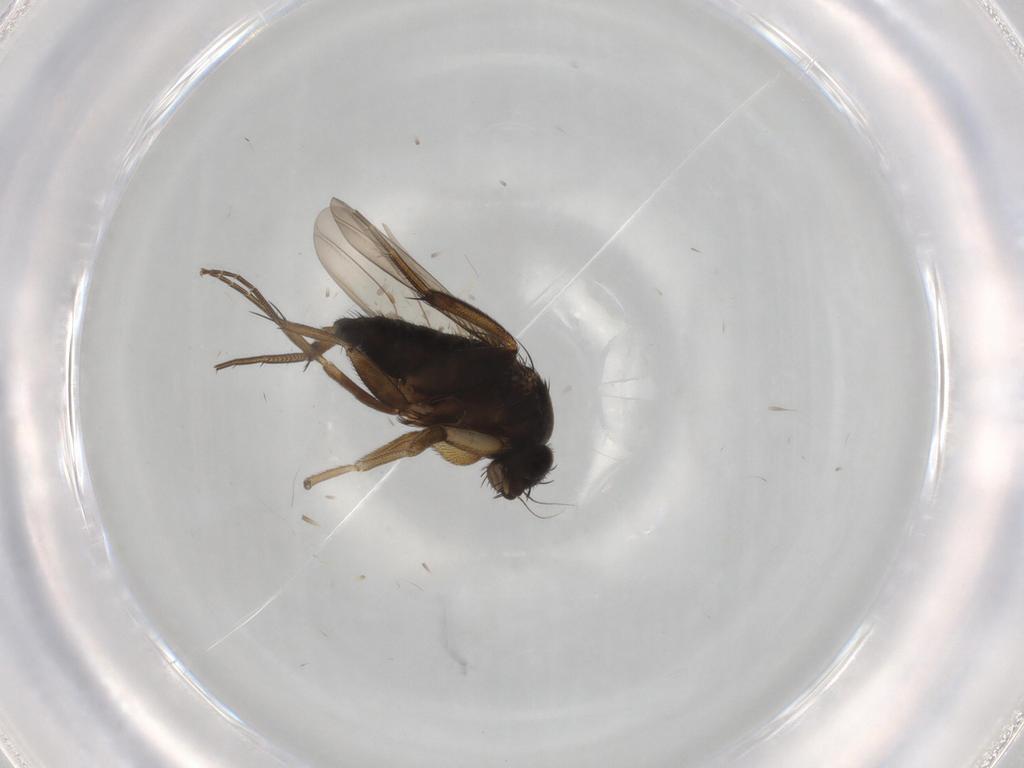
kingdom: Animalia
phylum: Arthropoda
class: Insecta
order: Diptera
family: Phoridae
